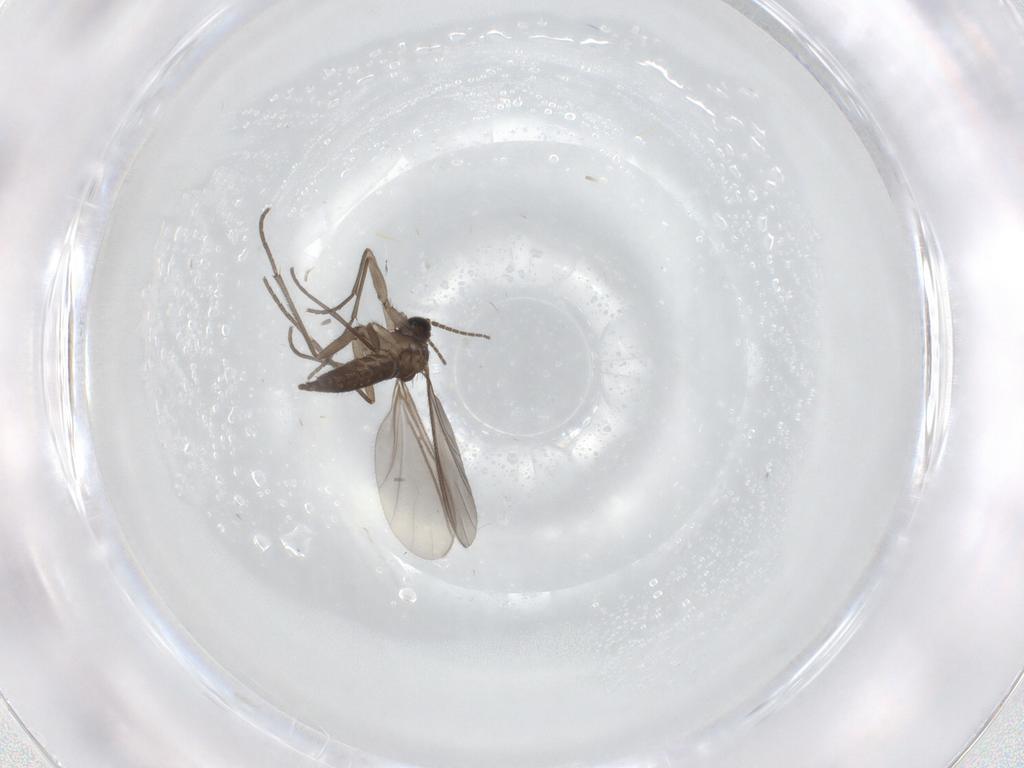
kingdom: Animalia
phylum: Arthropoda
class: Insecta
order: Diptera
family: Sciaridae
